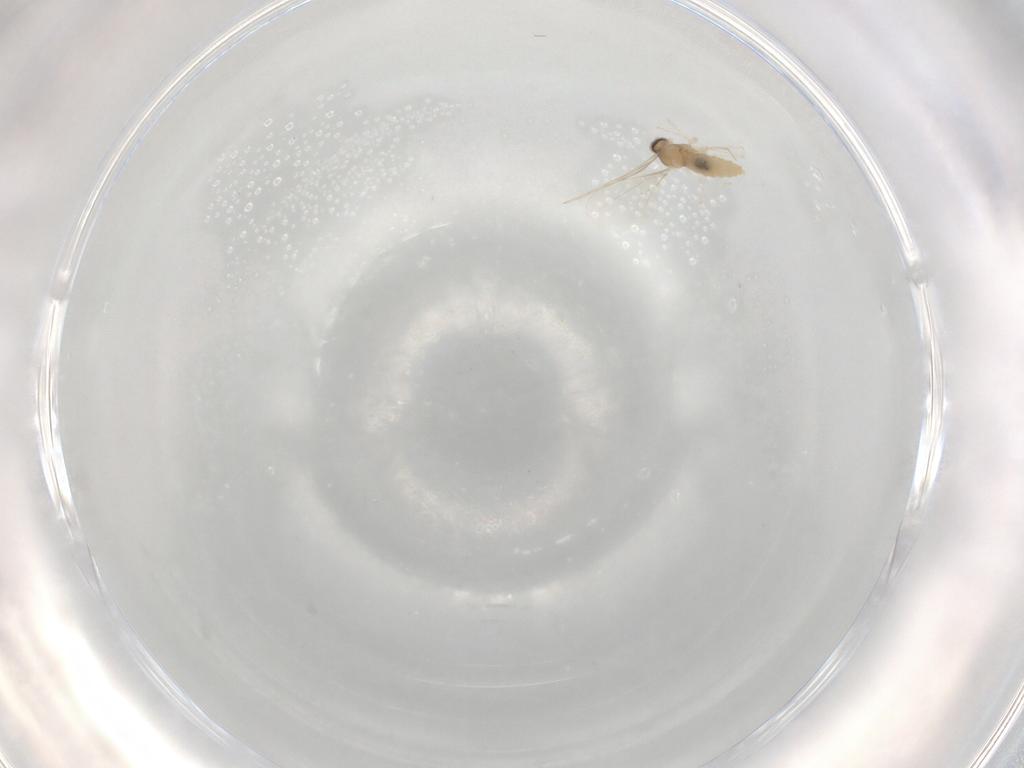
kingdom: Animalia
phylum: Arthropoda
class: Insecta
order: Diptera
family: Cecidomyiidae
